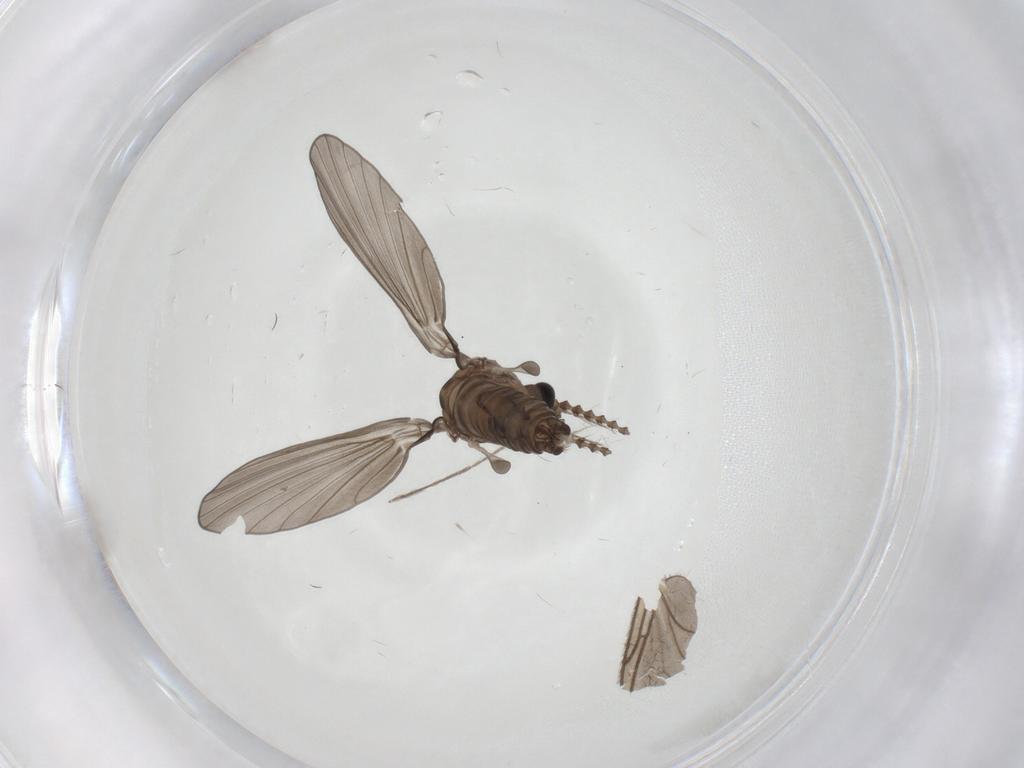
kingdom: Animalia
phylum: Arthropoda
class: Insecta
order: Diptera
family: Psychodidae
